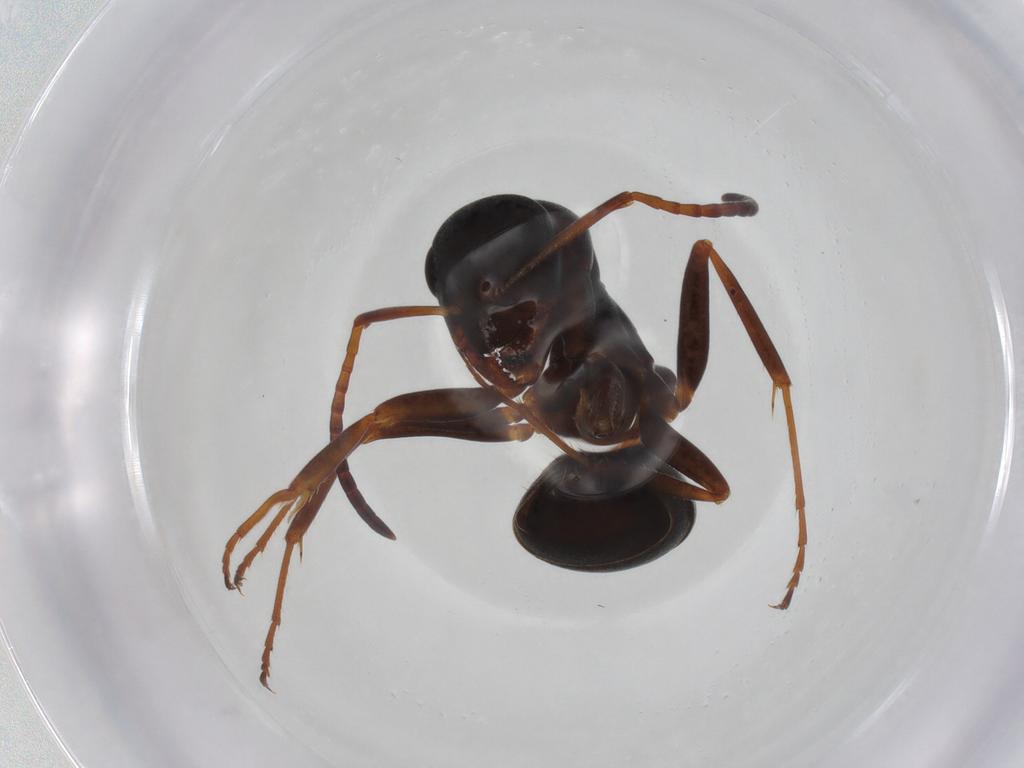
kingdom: Animalia
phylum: Arthropoda
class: Insecta
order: Hymenoptera
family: Formicidae
